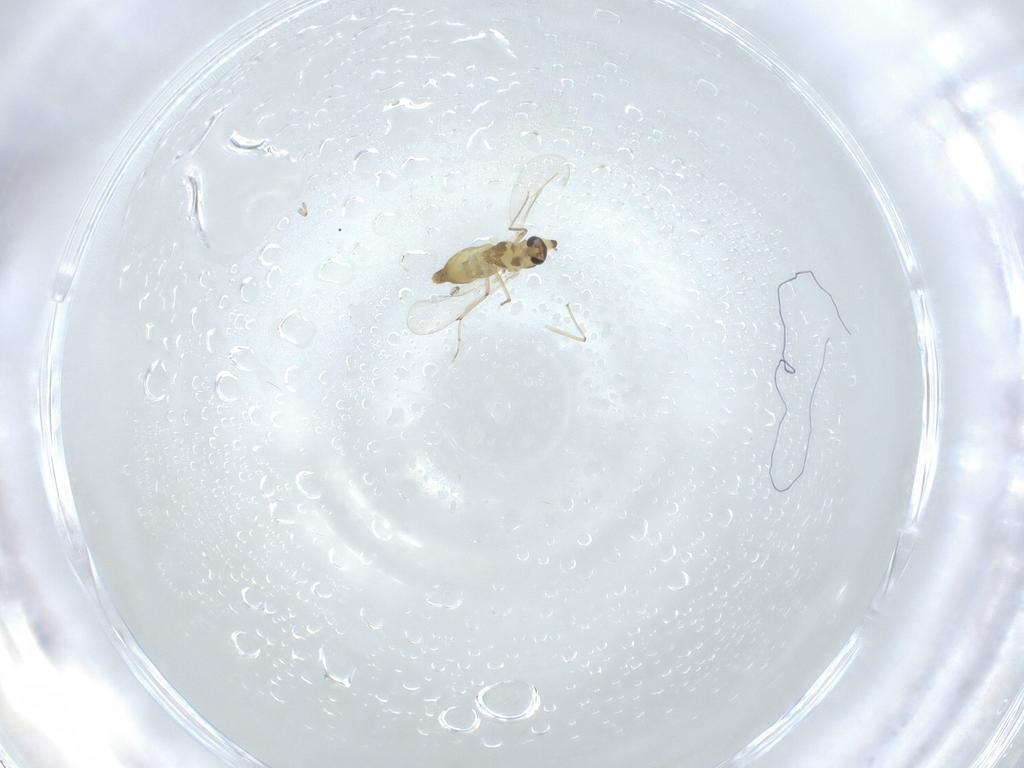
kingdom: Animalia
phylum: Arthropoda
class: Insecta
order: Diptera
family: Chironomidae
